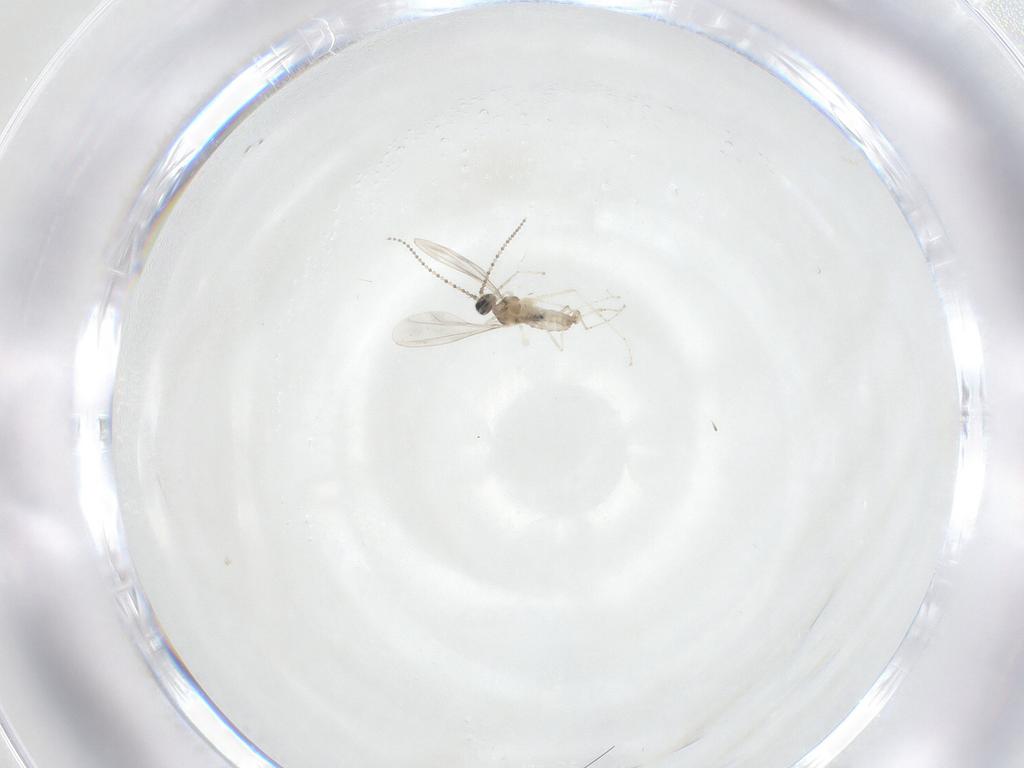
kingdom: Animalia
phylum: Arthropoda
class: Insecta
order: Diptera
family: Cecidomyiidae
